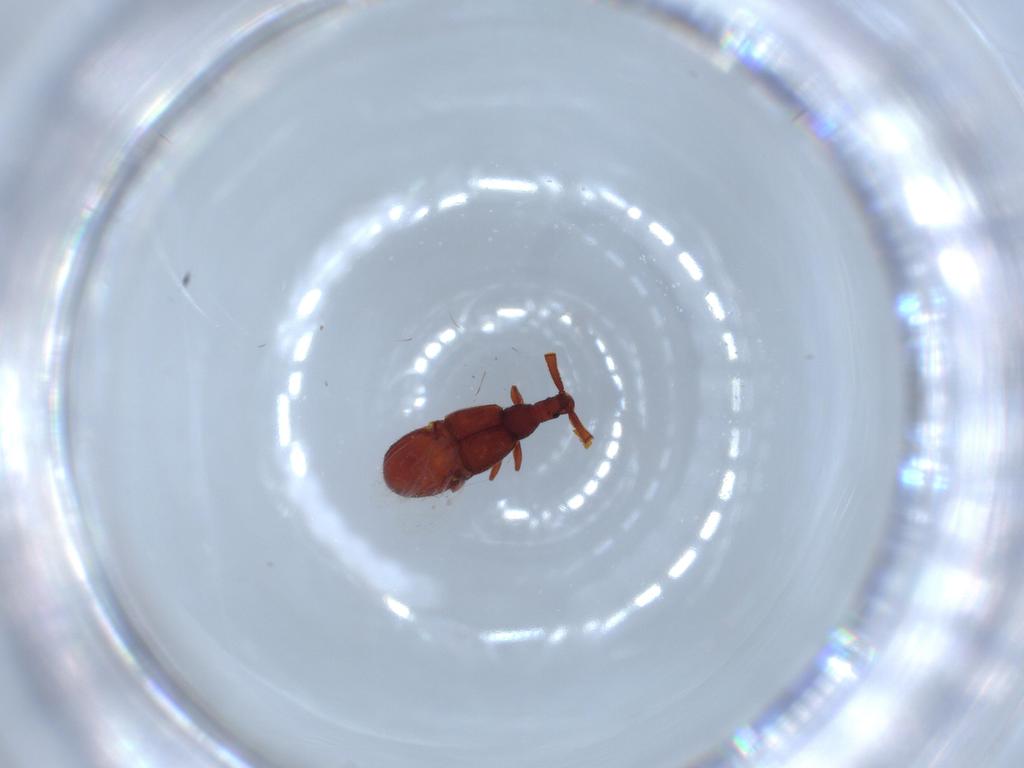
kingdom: Animalia
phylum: Arthropoda
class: Insecta
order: Coleoptera
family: Staphylinidae
